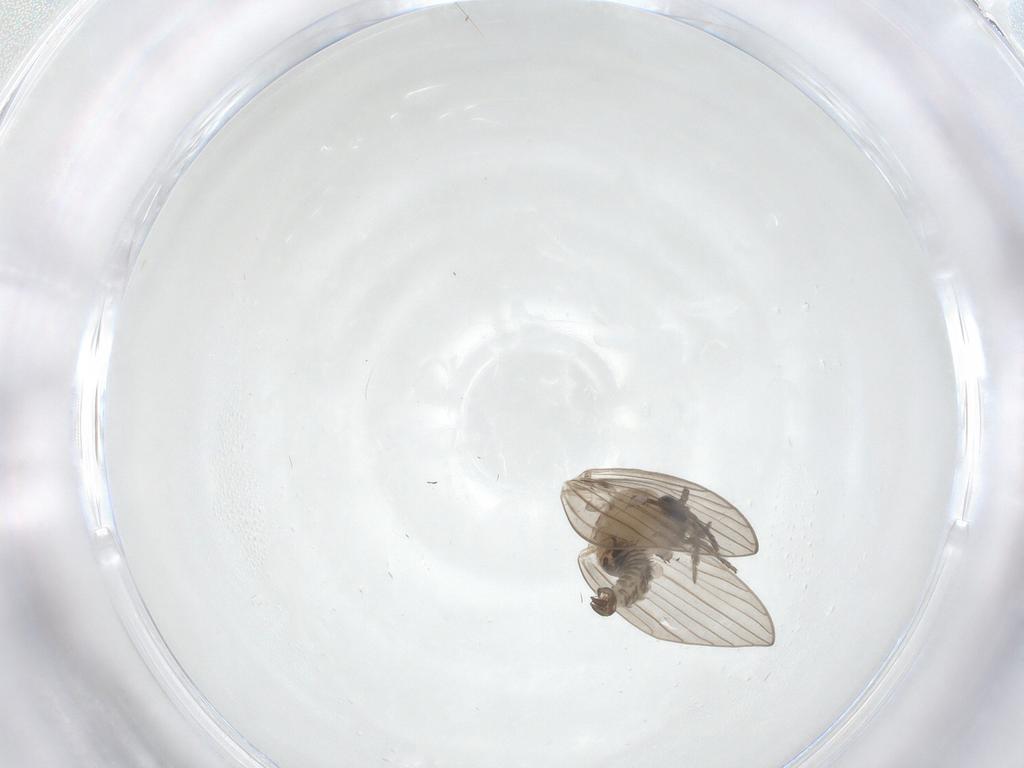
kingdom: Animalia
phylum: Arthropoda
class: Insecta
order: Diptera
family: Psychodidae
